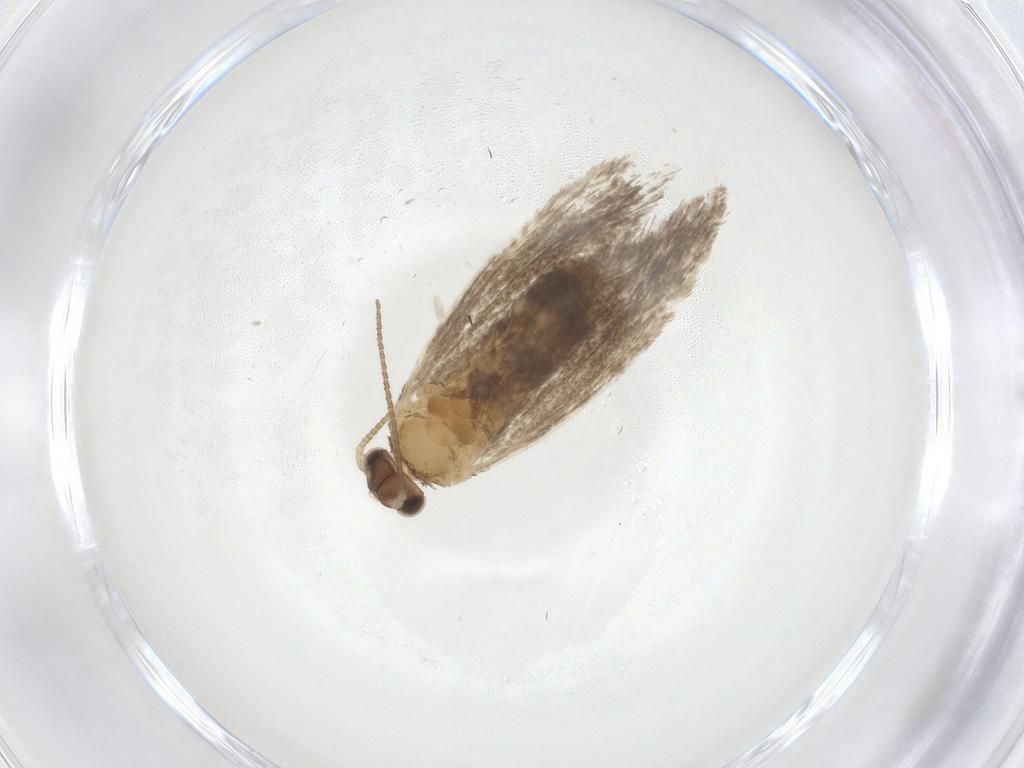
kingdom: Animalia
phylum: Arthropoda
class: Insecta
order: Lepidoptera
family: Dryadaulidae
